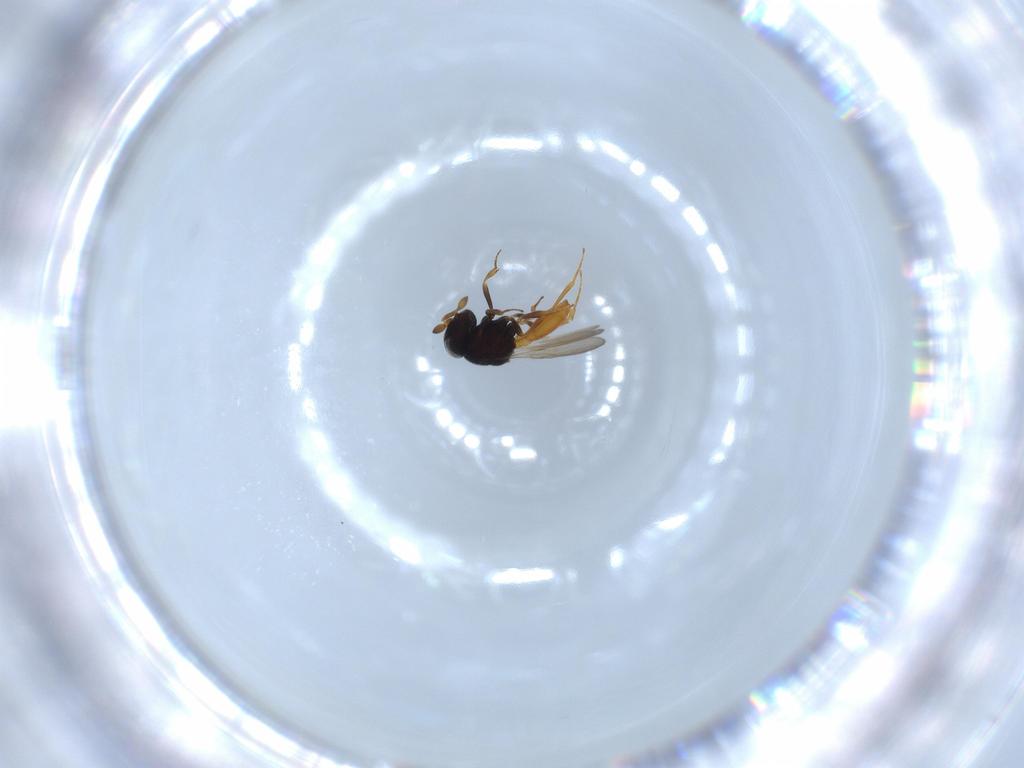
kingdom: Animalia
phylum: Arthropoda
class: Insecta
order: Hymenoptera
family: Scelionidae
